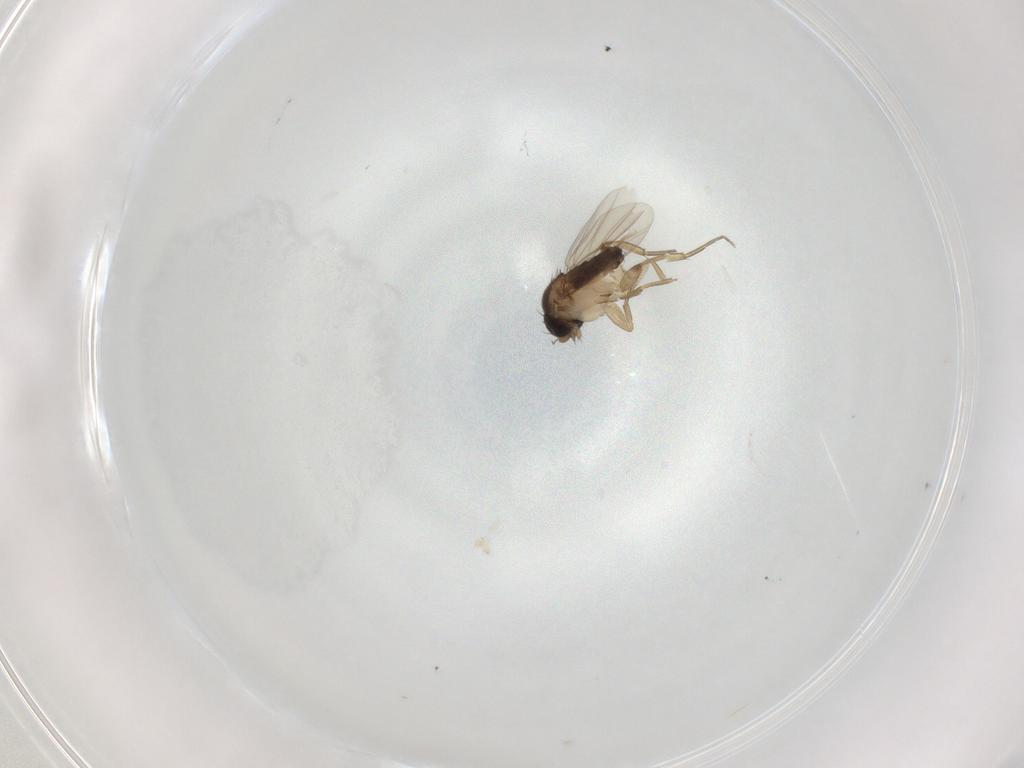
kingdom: Animalia
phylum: Arthropoda
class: Insecta
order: Diptera
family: Phoridae
